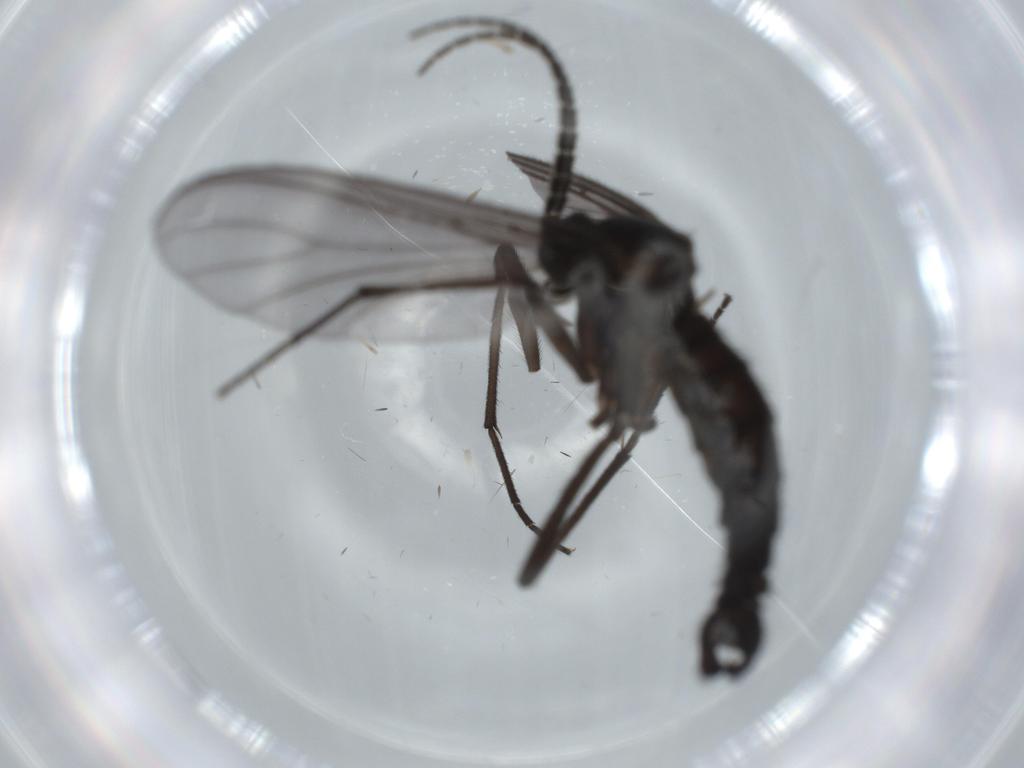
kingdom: Animalia
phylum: Arthropoda
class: Insecta
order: Diptera
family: Cecidomyiidae
